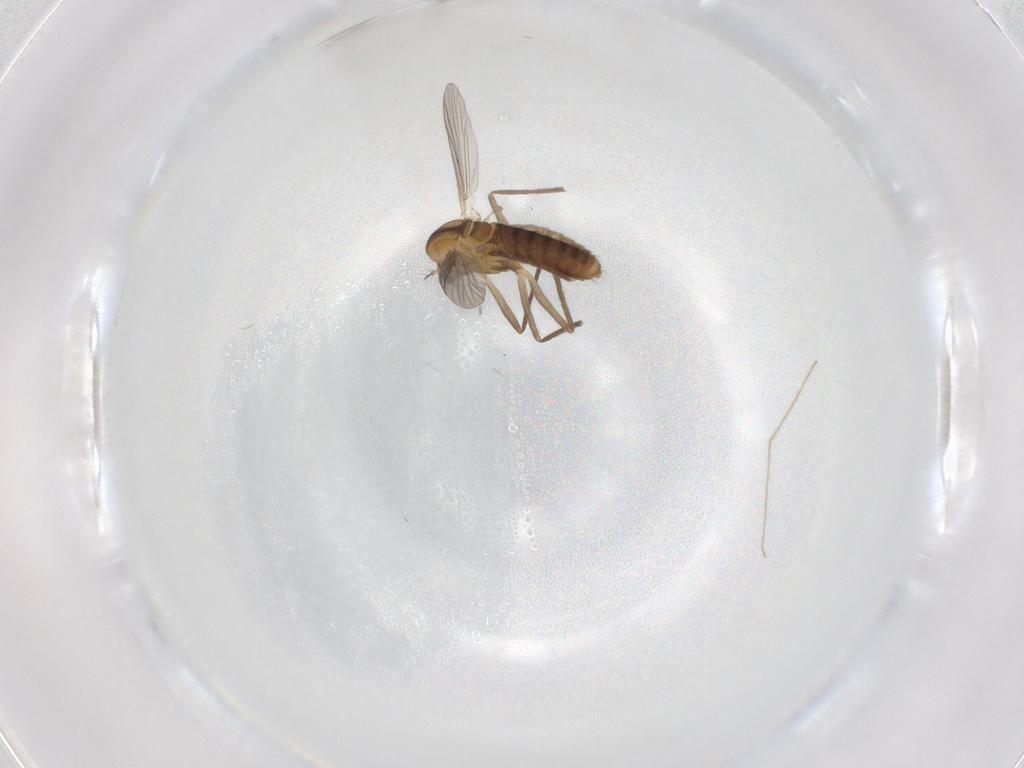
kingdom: Animalia
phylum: Arthropoda
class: Insecta
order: Diptera
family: Chironomidae
